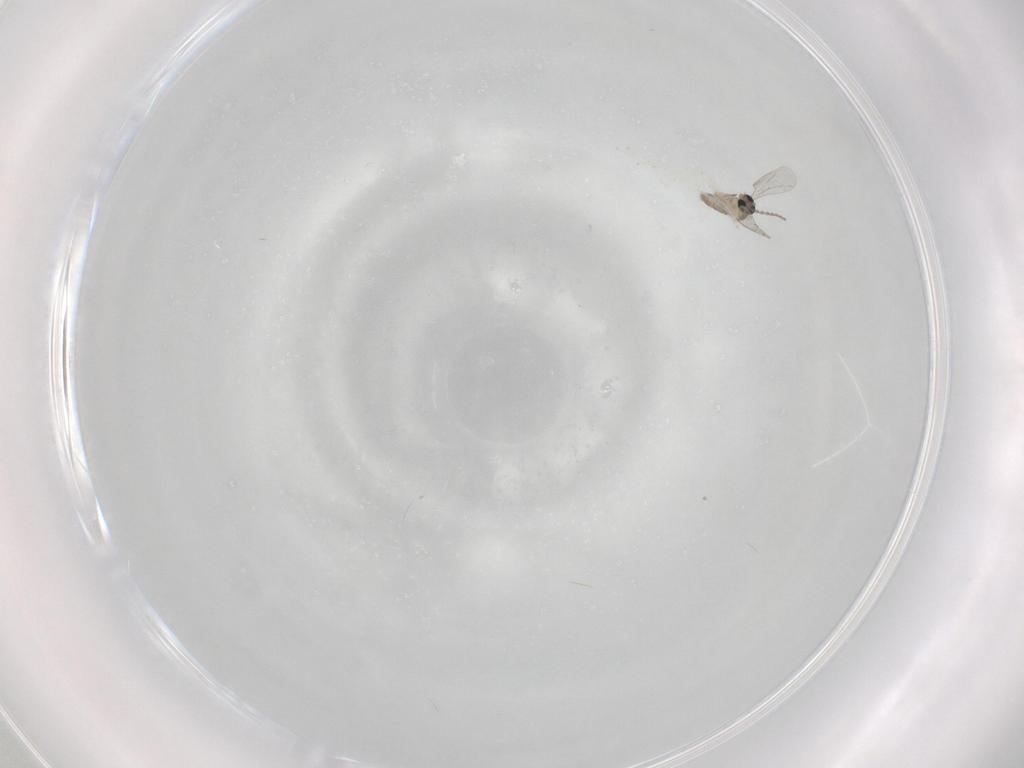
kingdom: Animalia
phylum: Arthropoda
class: Insecta
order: Diptera
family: Cecidomyiidae
